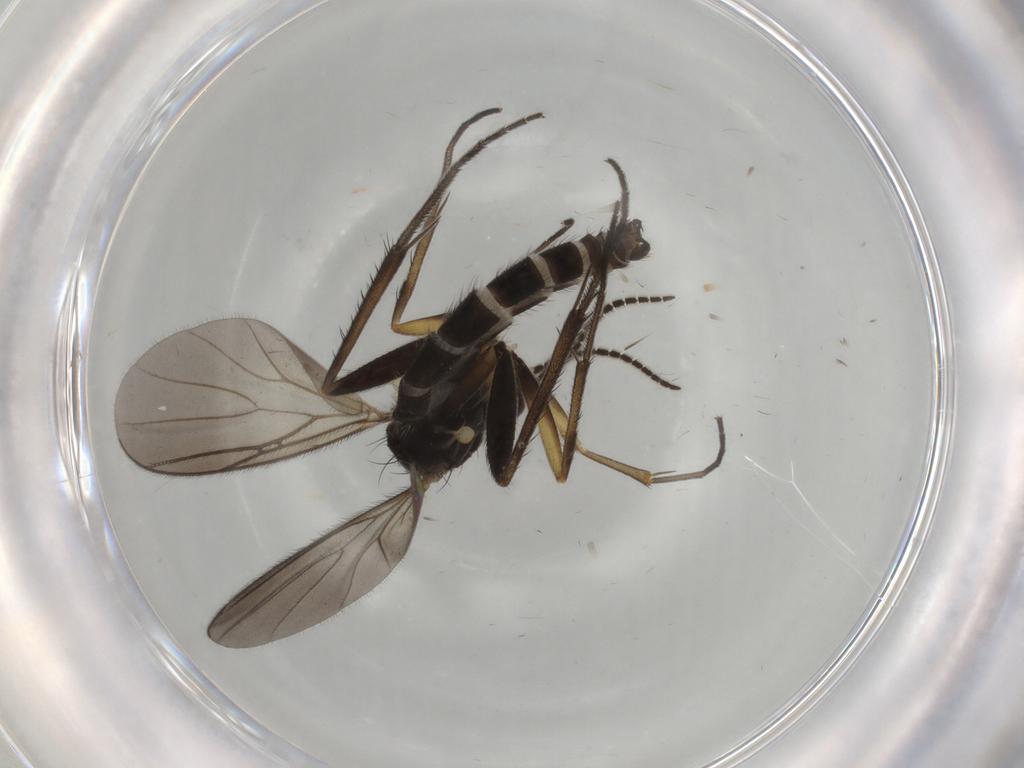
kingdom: Animalia
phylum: Arthropoda
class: Insecta
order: Diptera
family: Mycetophilidae
